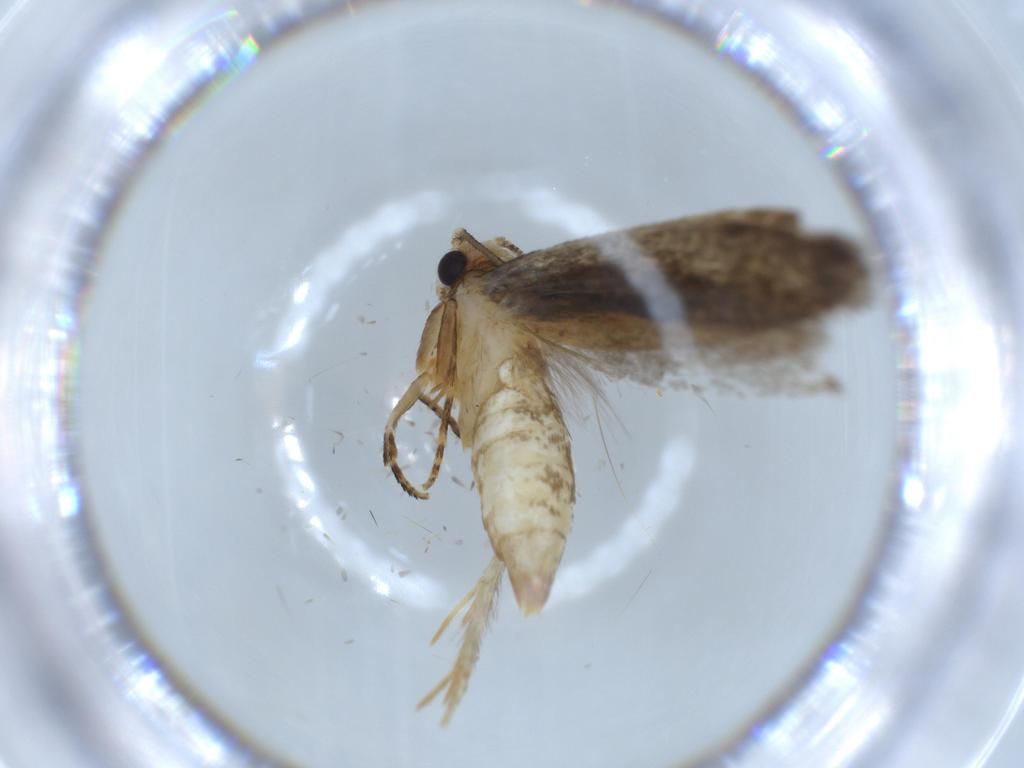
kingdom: Animalia
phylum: Arthropoda
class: Insecta
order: Lepidoptera
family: Tineidae
